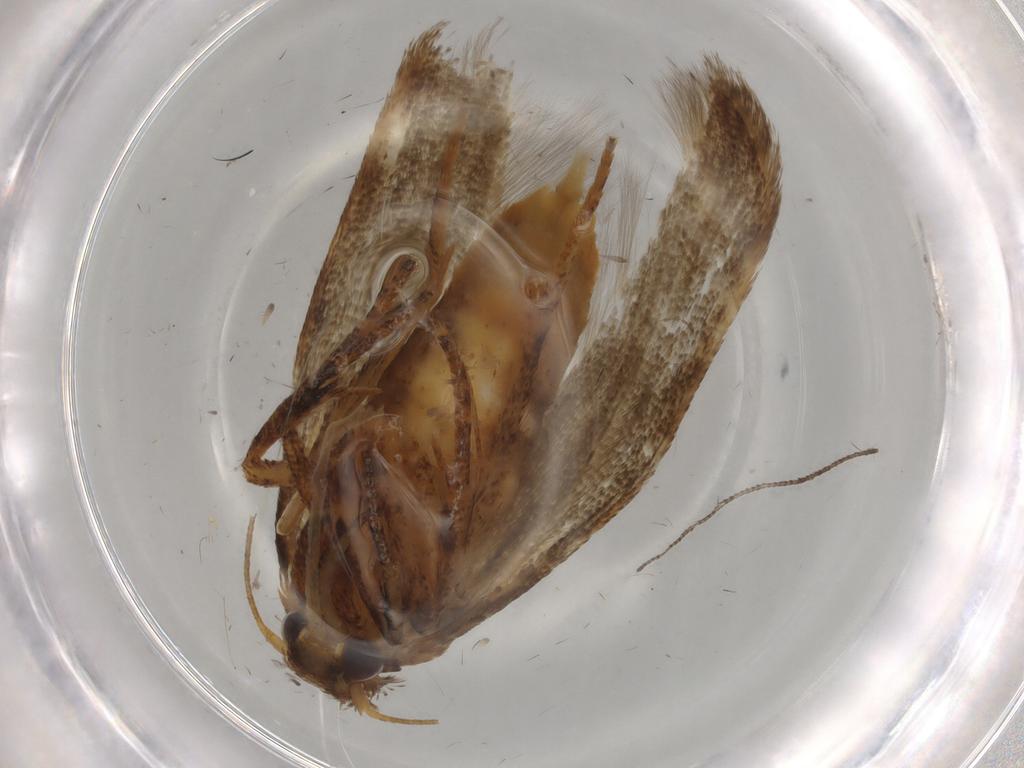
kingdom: Animalia
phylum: Arthropoda
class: Insecta
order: Lepidoptera
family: Blastobasidae
